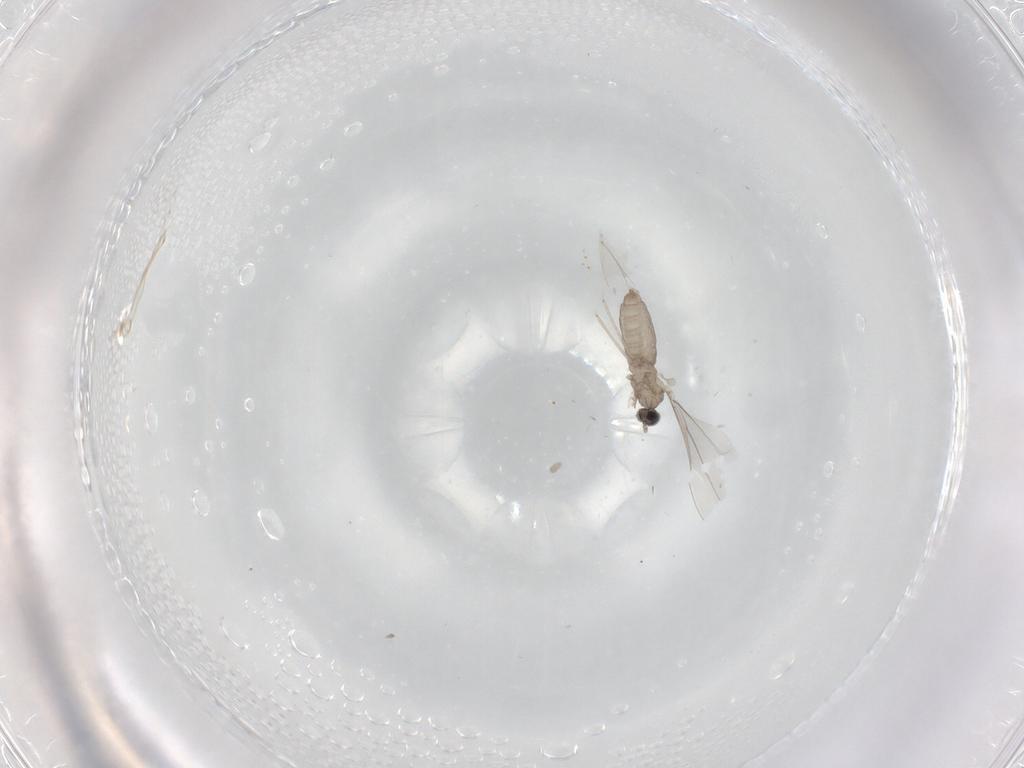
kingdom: Animalia
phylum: Arthropoda
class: Insecta
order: Diptera
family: Cecidomyiidae
